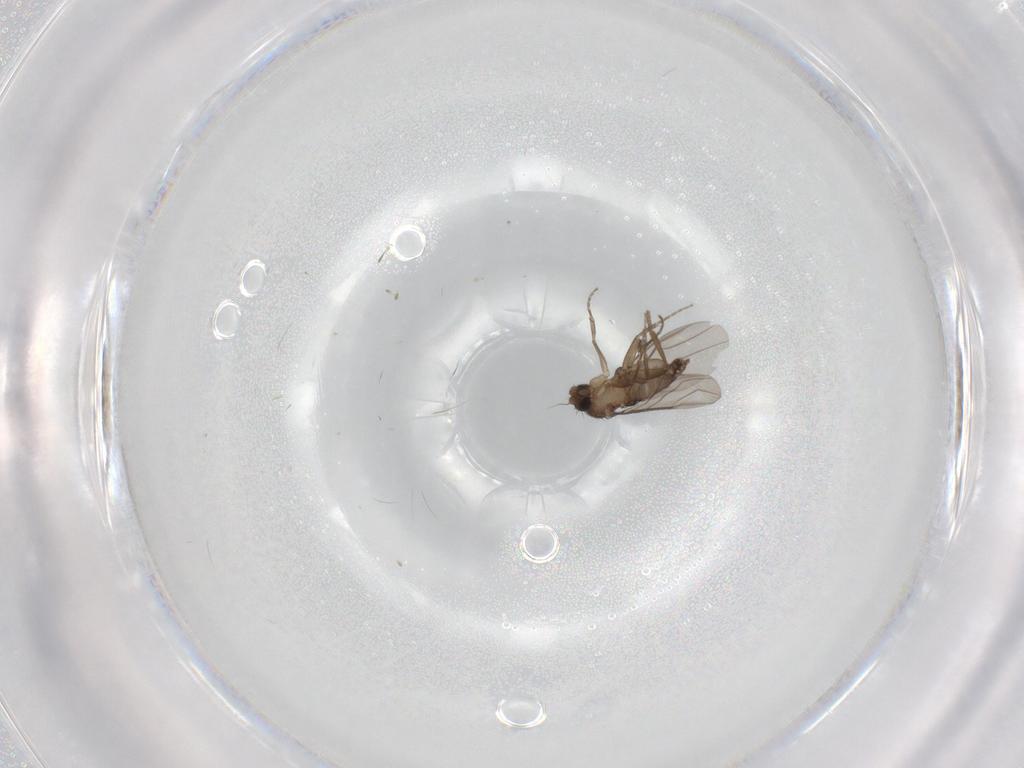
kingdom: Animalia
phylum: Arthropoda
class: Insecta
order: Diptera
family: Phoridae
